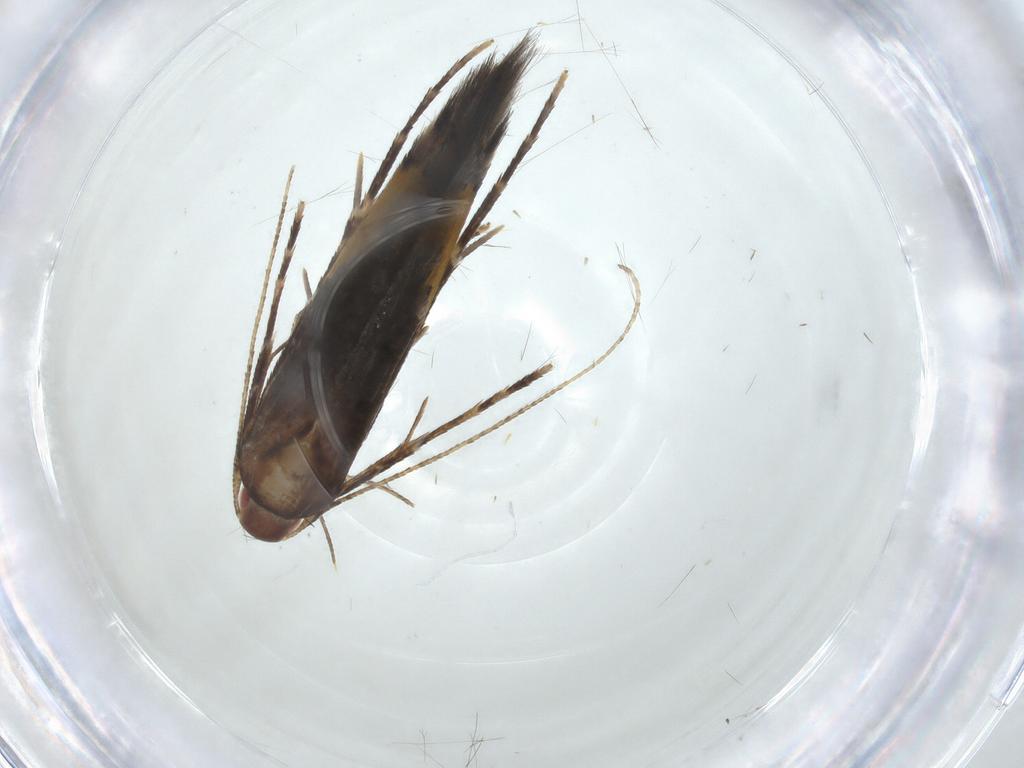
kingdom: Animalia
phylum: Arthropoda
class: Insecta
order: Lepidoptera
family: Cosmopterigidae
